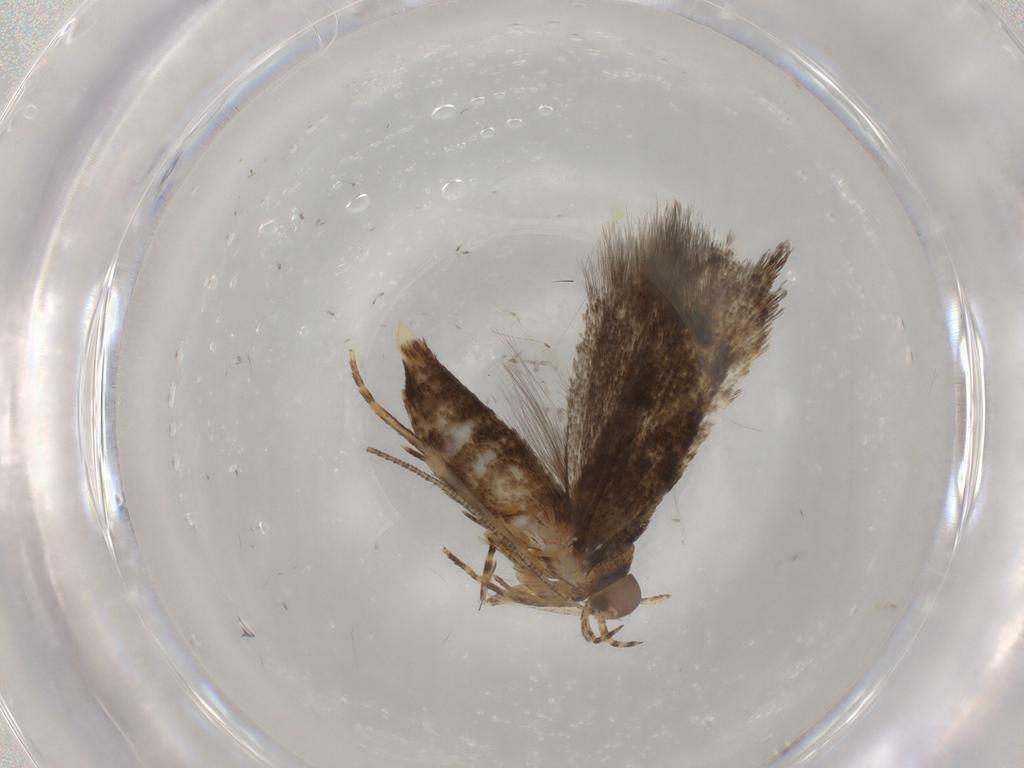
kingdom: Animalia
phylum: Arthropoda
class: Insecta
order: Lepidoptera
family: Oecophoridae
